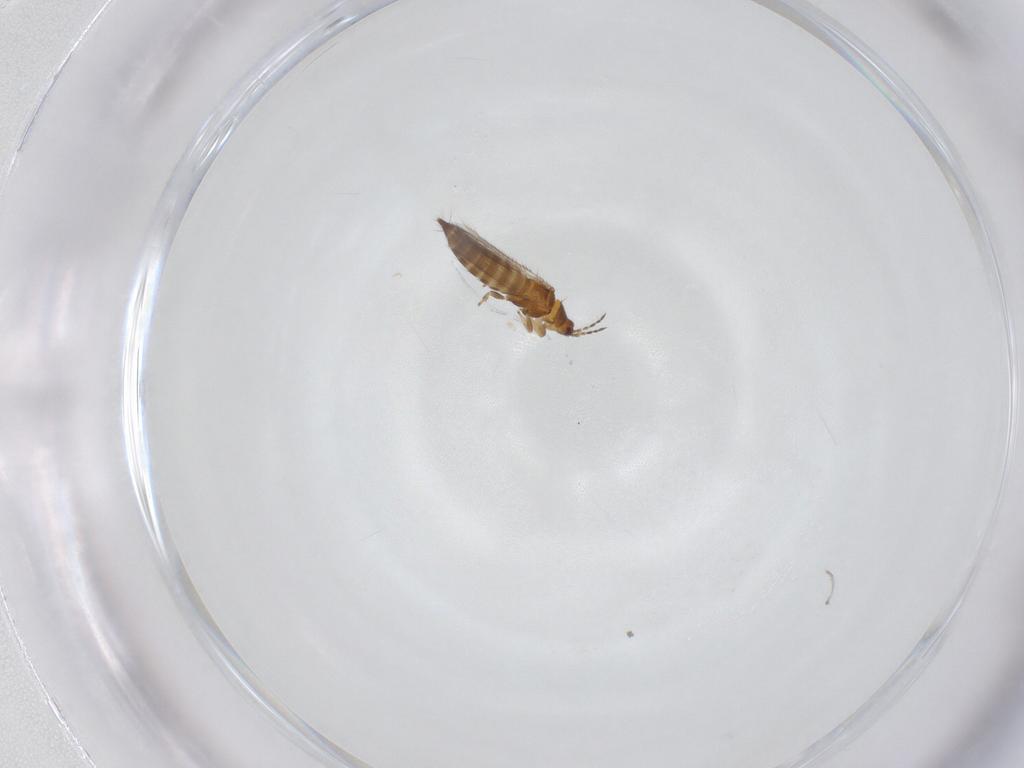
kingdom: Animalia
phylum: Arthropoda
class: Insecta
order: Thysanoptera
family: Thripidae
